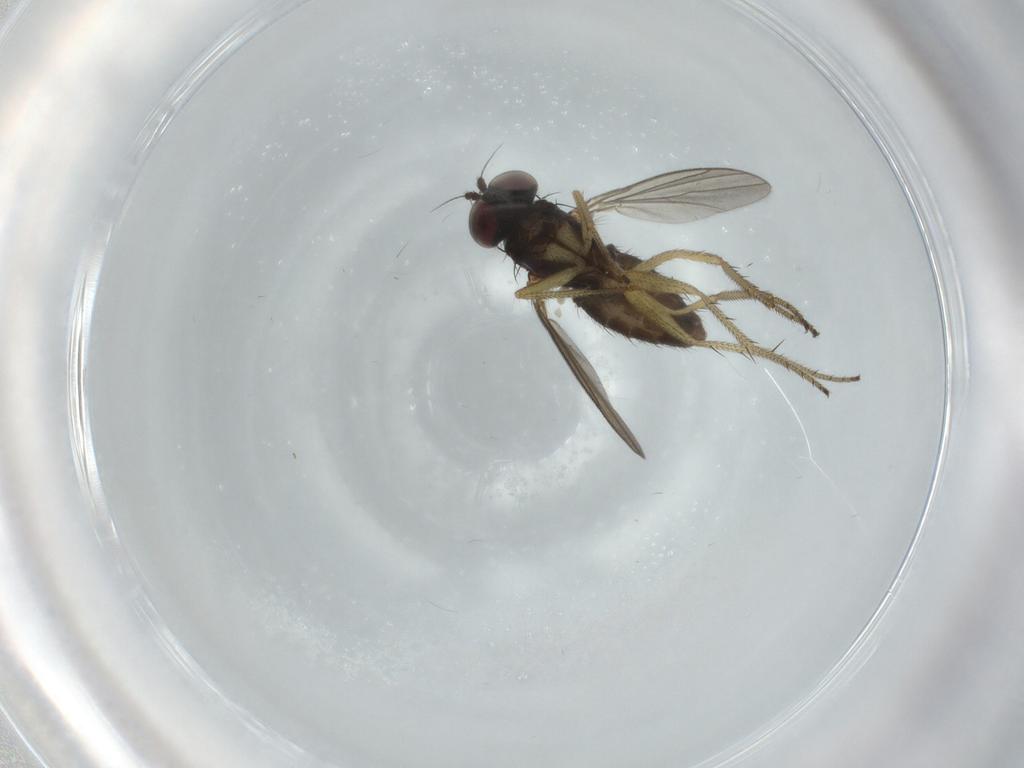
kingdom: Animalia
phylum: Arthropoda
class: Insecta
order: Diptera
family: Dolichopodidae
